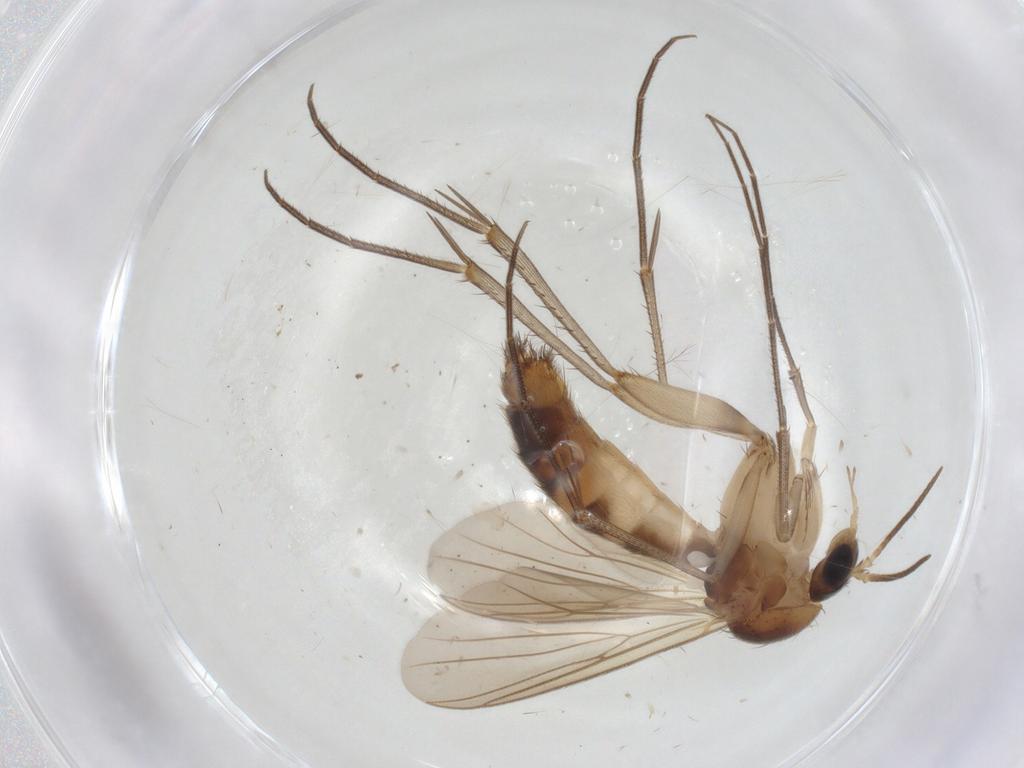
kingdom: Animalia
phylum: Arthropoda
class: Insecta
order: Diptera
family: Mycetophilidae
